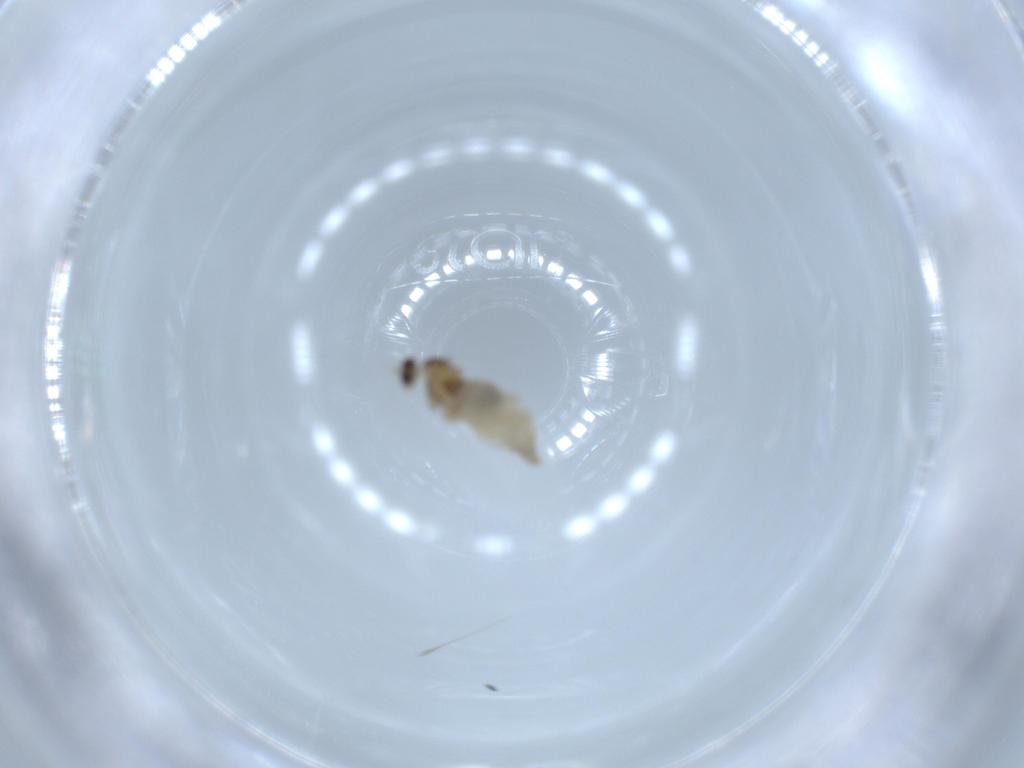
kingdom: Animalia
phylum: Arthropoda
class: Insecta
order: Diptera
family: Cecidomyiidae
